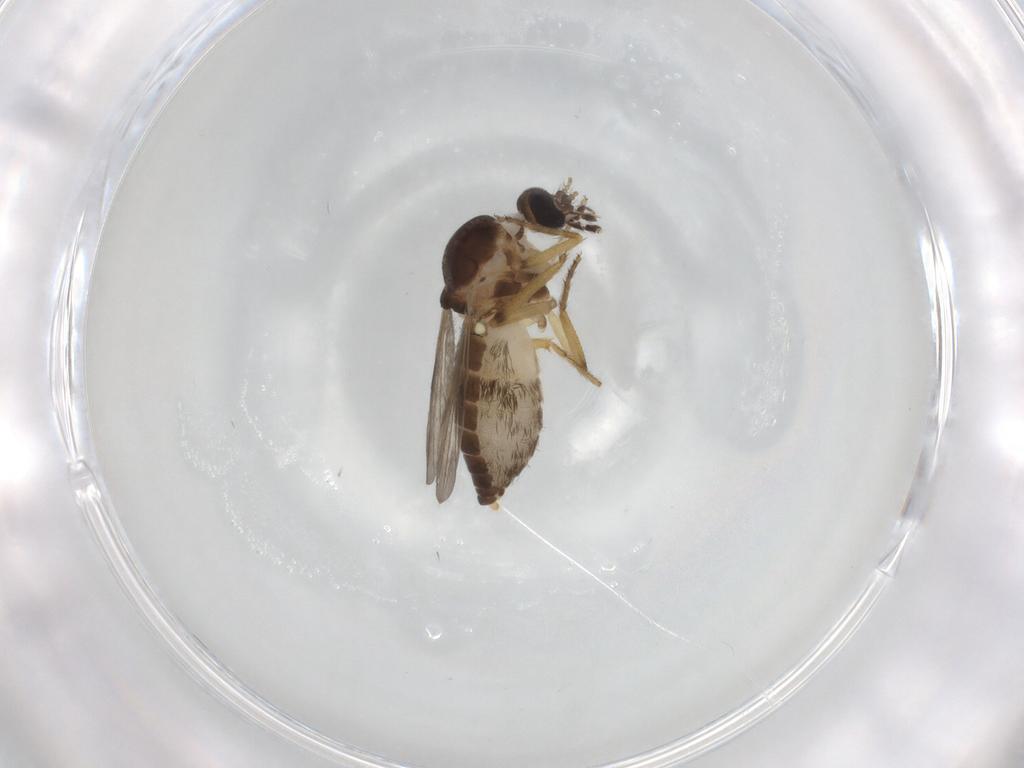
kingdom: Animalia
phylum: Arthropoda
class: Insecta
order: Diptera
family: Ceratopogonidae
